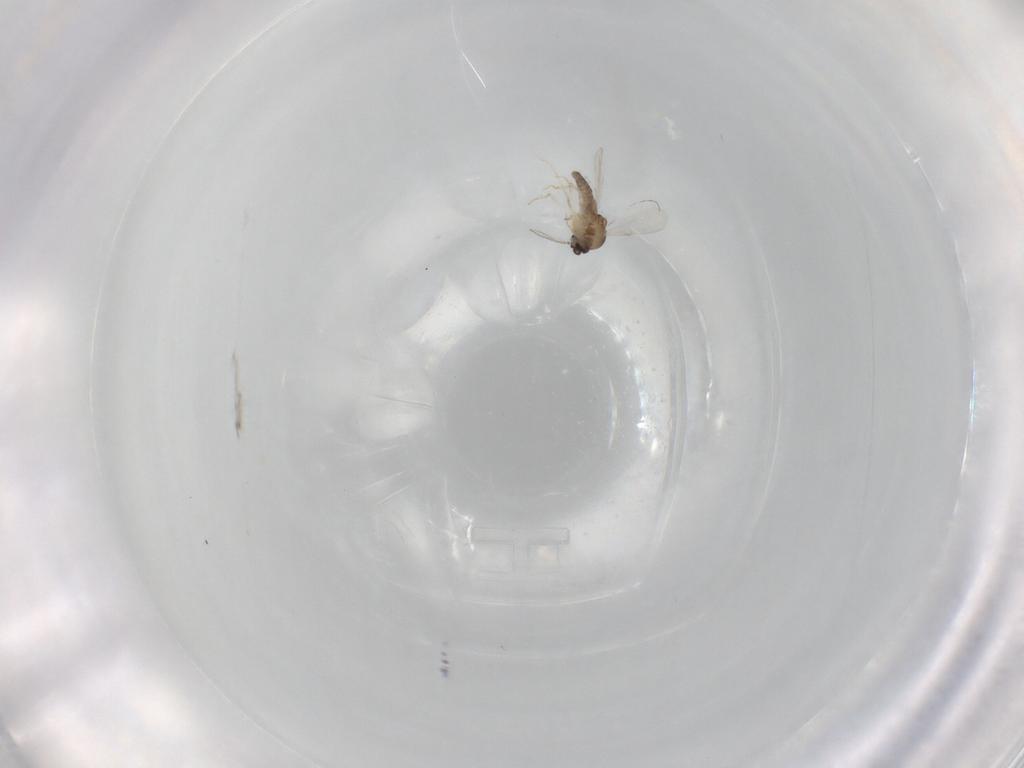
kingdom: Animalia
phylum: Arthropoda
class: Insecta
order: Diptera
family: Ceratopogonidae
